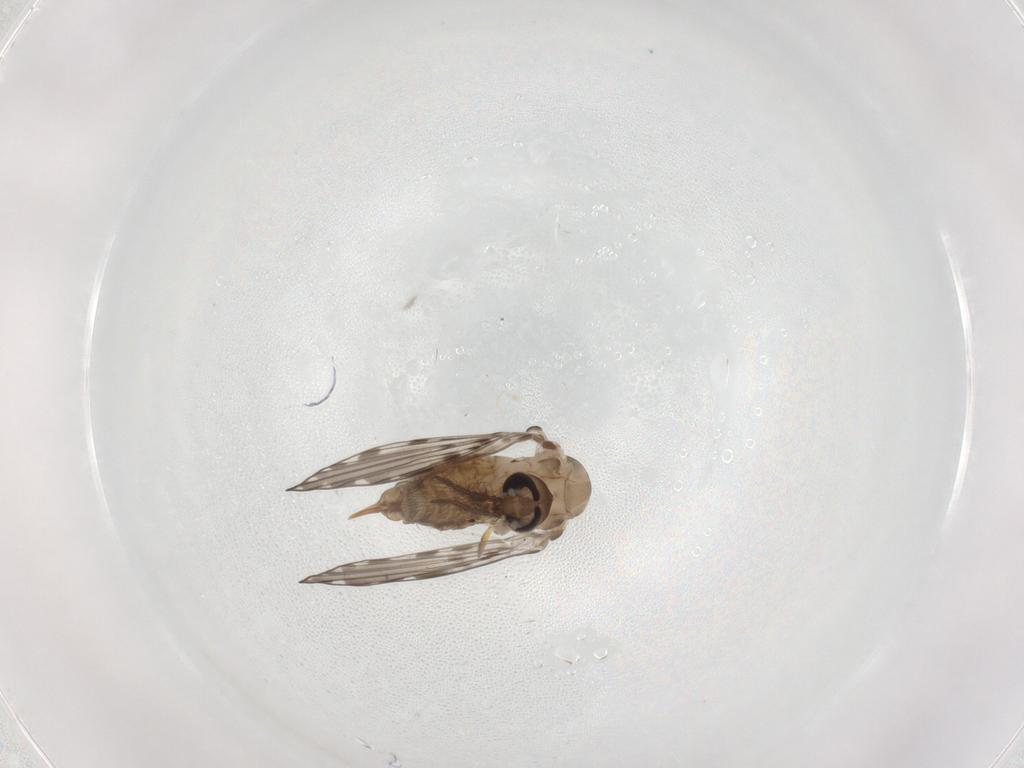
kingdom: Animalia
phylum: Arthropoda
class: Insecta
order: Diptera
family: Psychodidae
